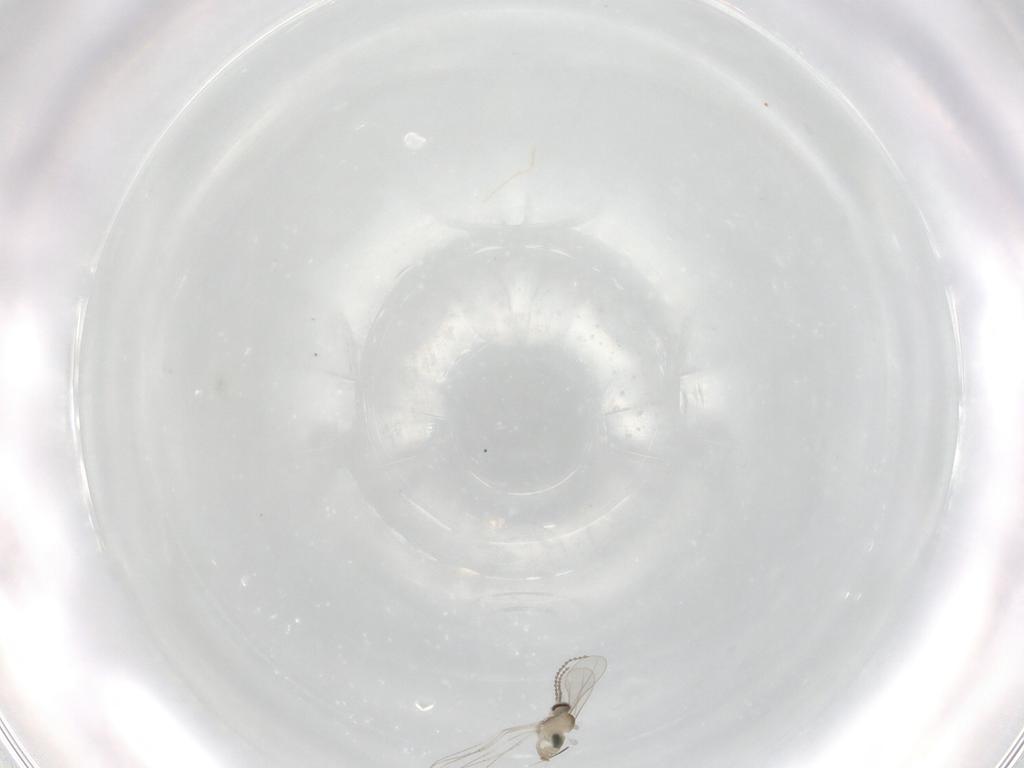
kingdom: Animalia
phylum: Arthropoda
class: Insecta
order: Diptera
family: Cecidomyiidae
